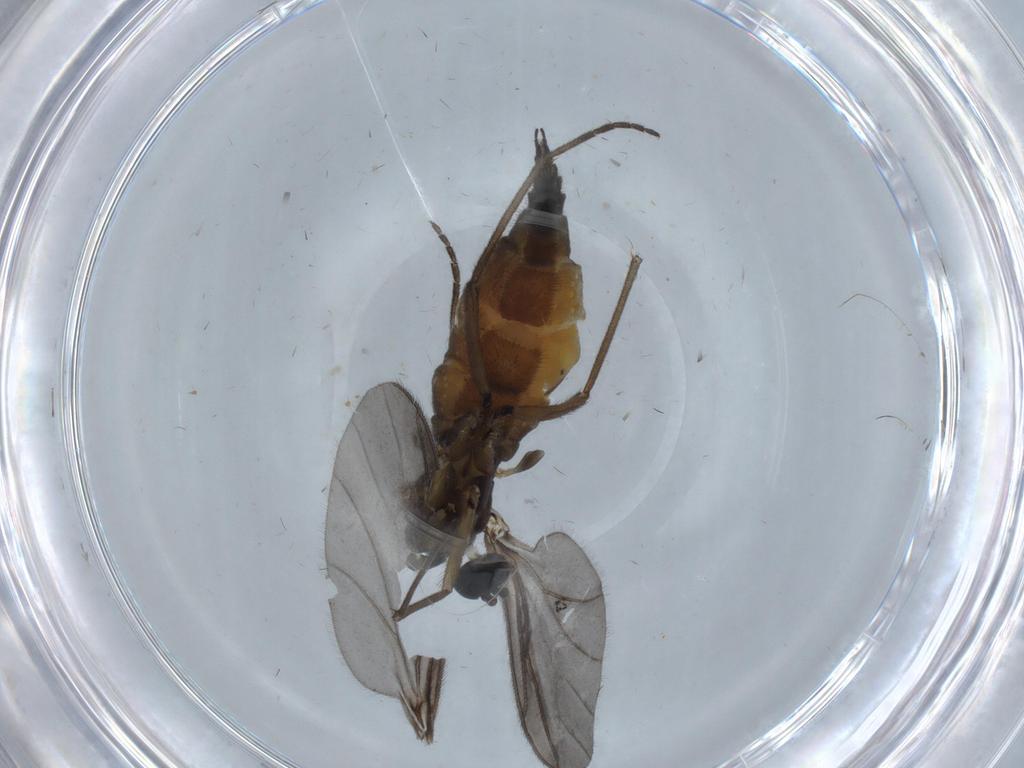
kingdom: Animalia
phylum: Arthropoda
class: Insecta
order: Diptera
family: Sciaridae
